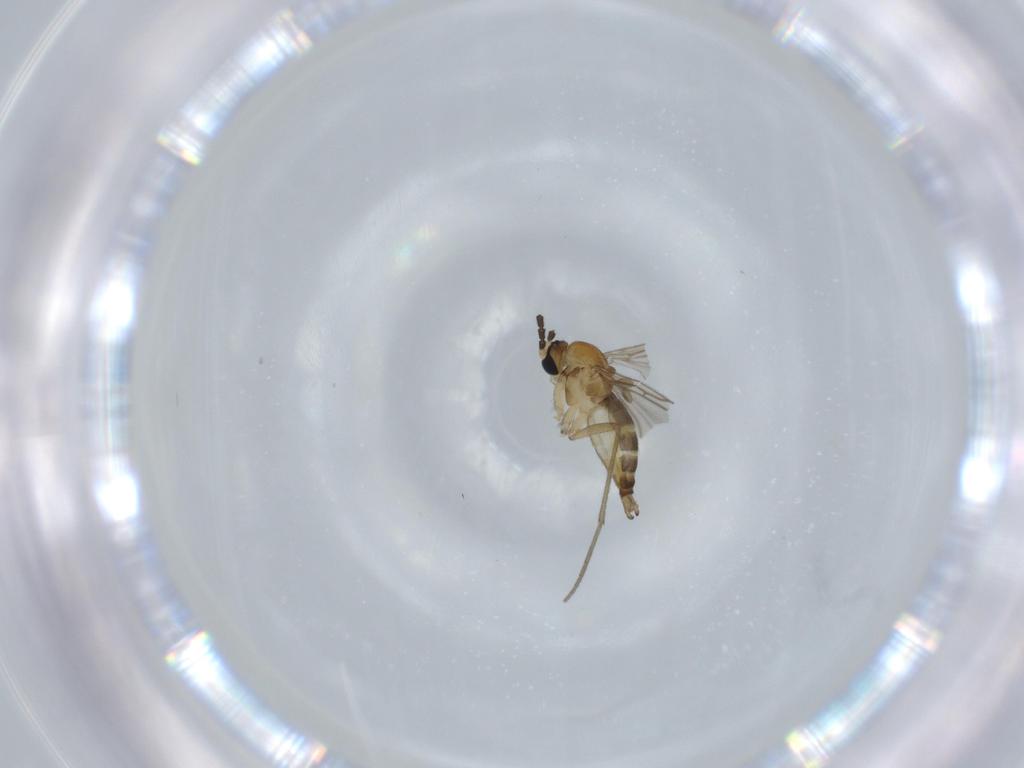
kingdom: Animalia
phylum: Arthropoda
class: Insecta
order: Diptera
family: Sciaridae
